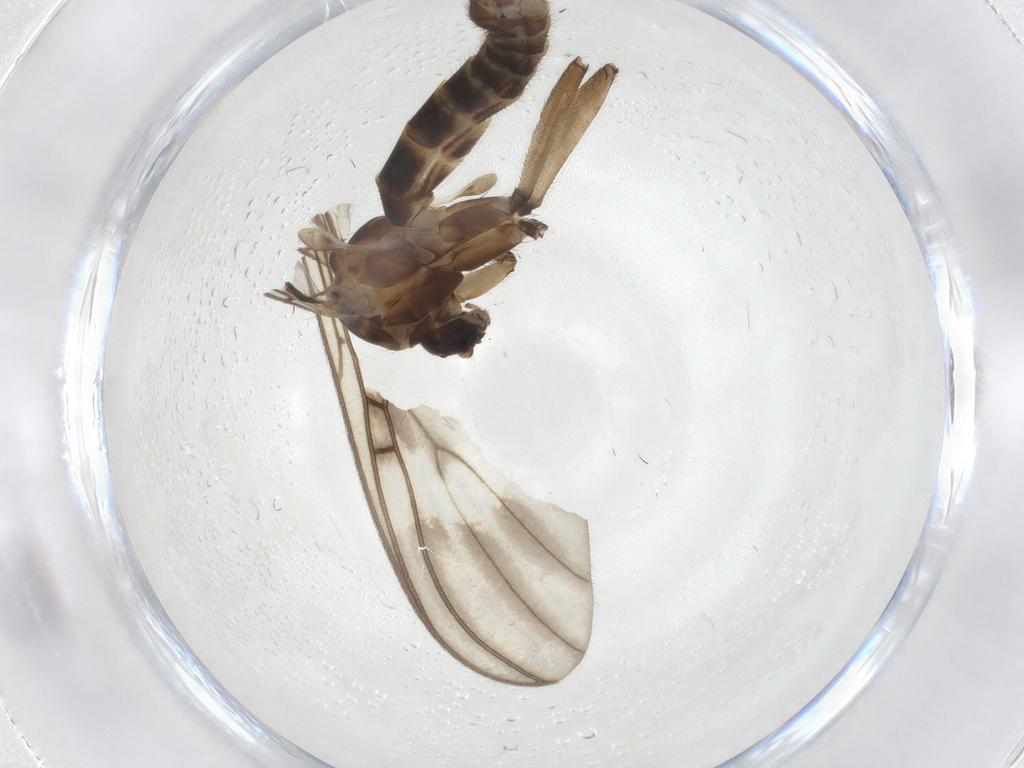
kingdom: Animalia
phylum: Arthropoda
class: Insecta
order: Diptera
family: Mycetophilidae
